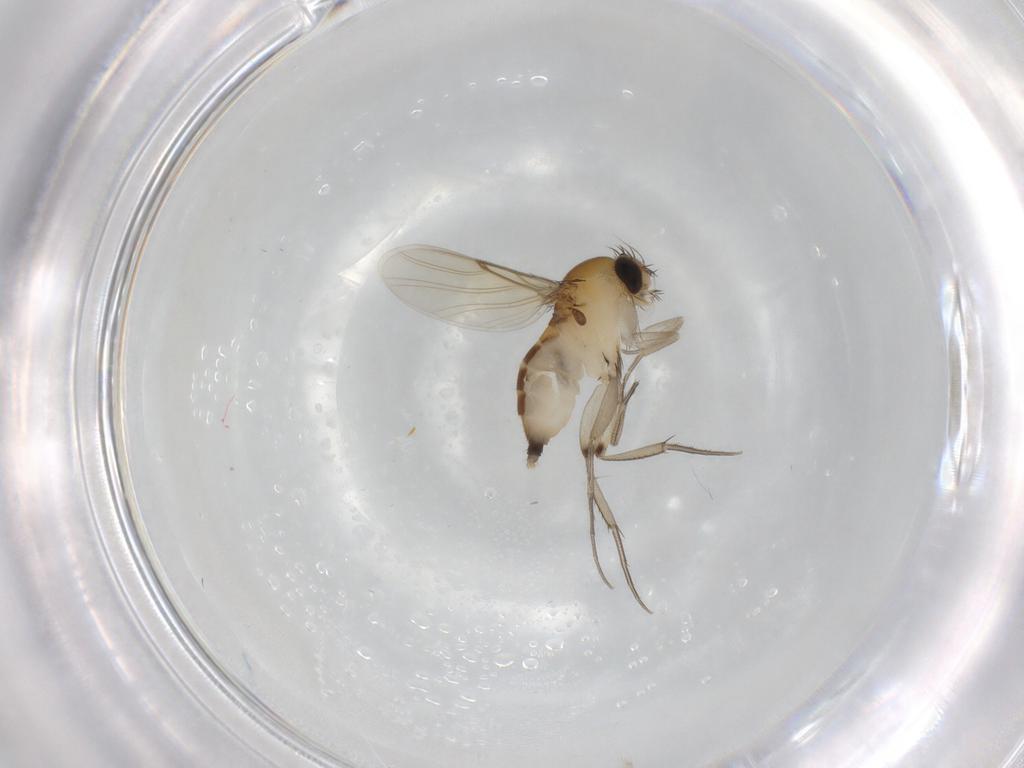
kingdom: Animalia
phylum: Arthropoda
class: Insecta
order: Diptera
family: Phoridae
